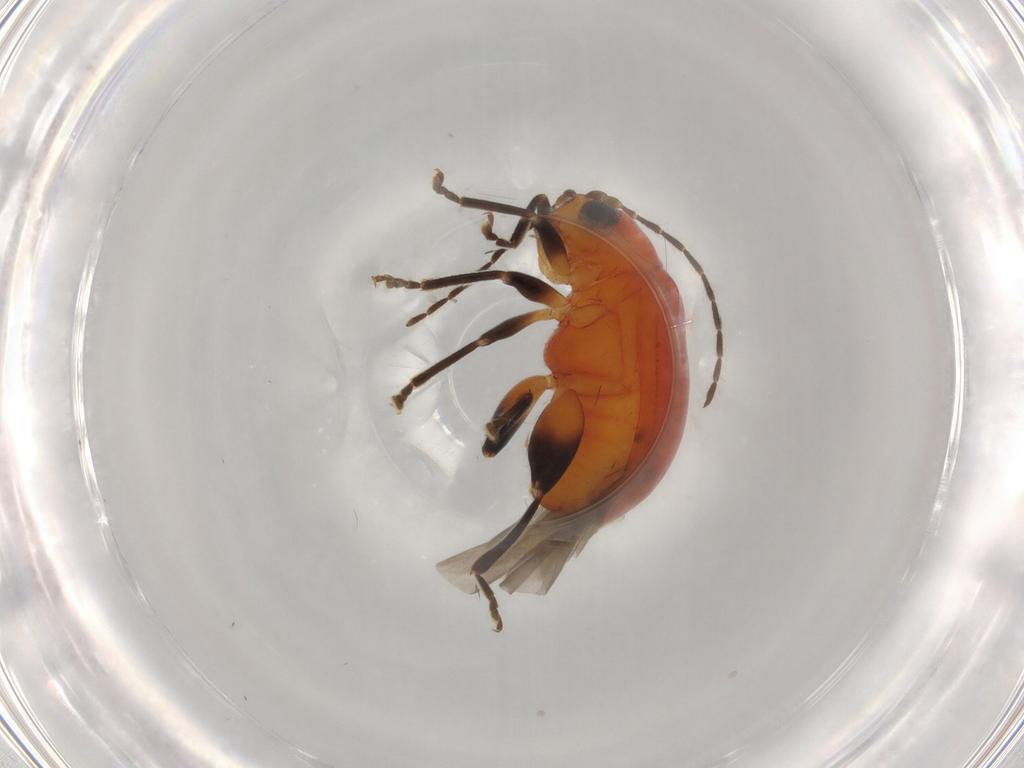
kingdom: Animalia
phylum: Arthropoda
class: Insecta
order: Coleoptera
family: Chrysomelidae
